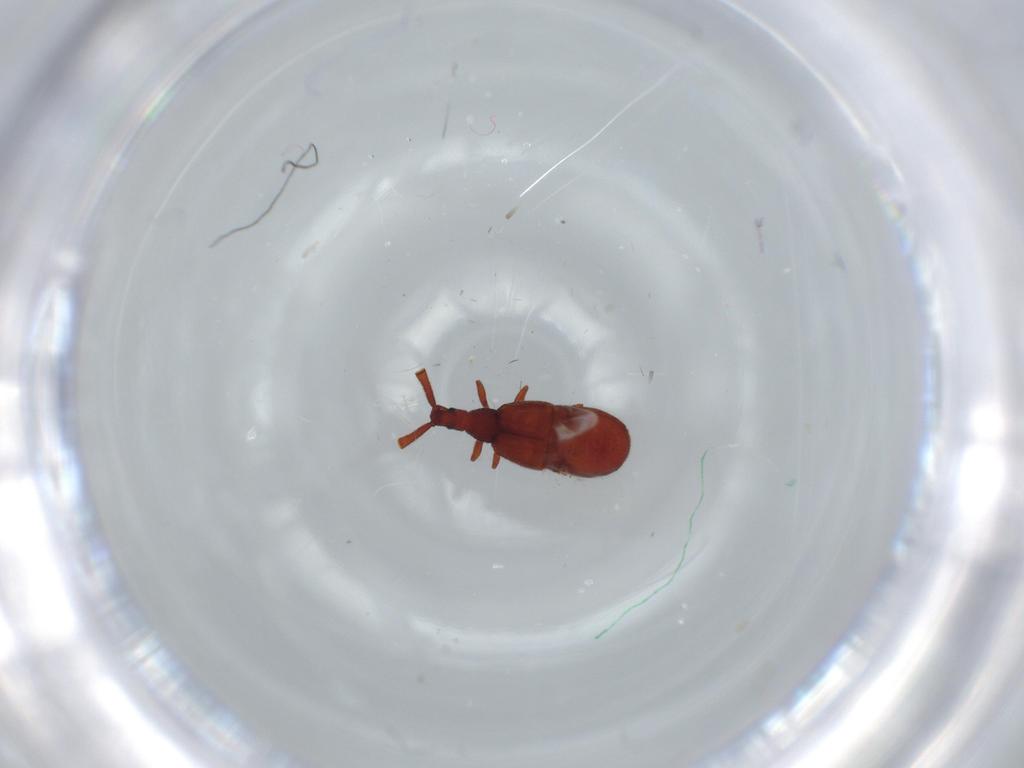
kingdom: Animalia
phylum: Arthropoda
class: Insecta
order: Coleoptera
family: Staphylinidae
